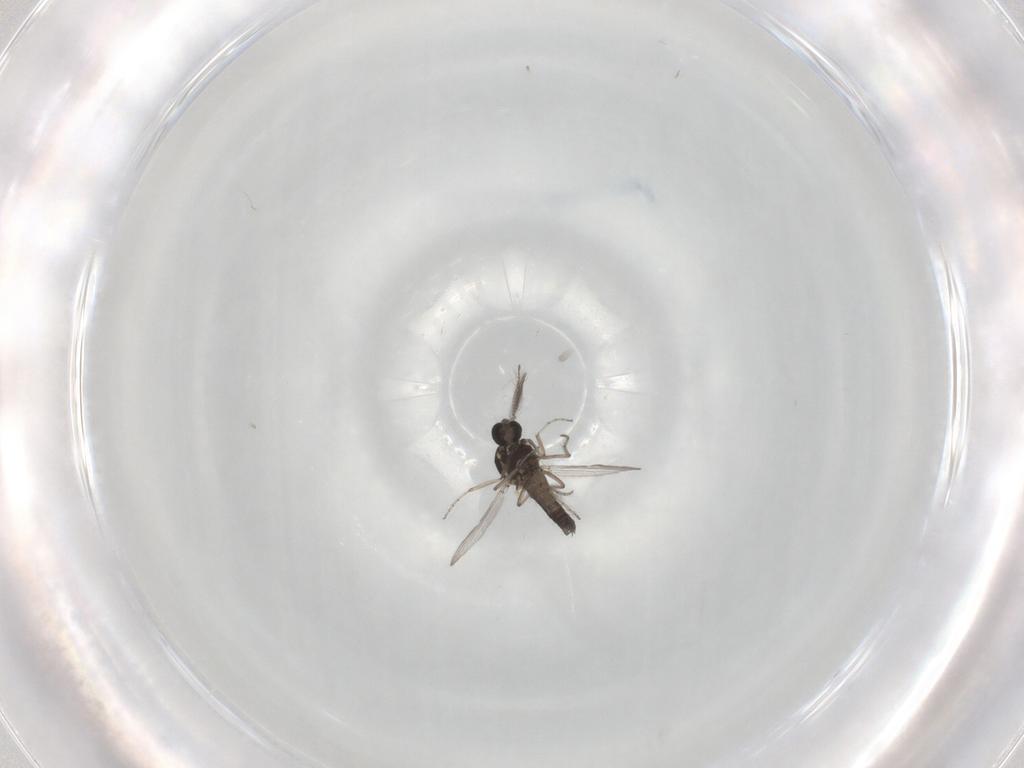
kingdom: Animalia
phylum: Arthropoda
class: Insecta
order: Diptera
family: Ceratopogonidae
